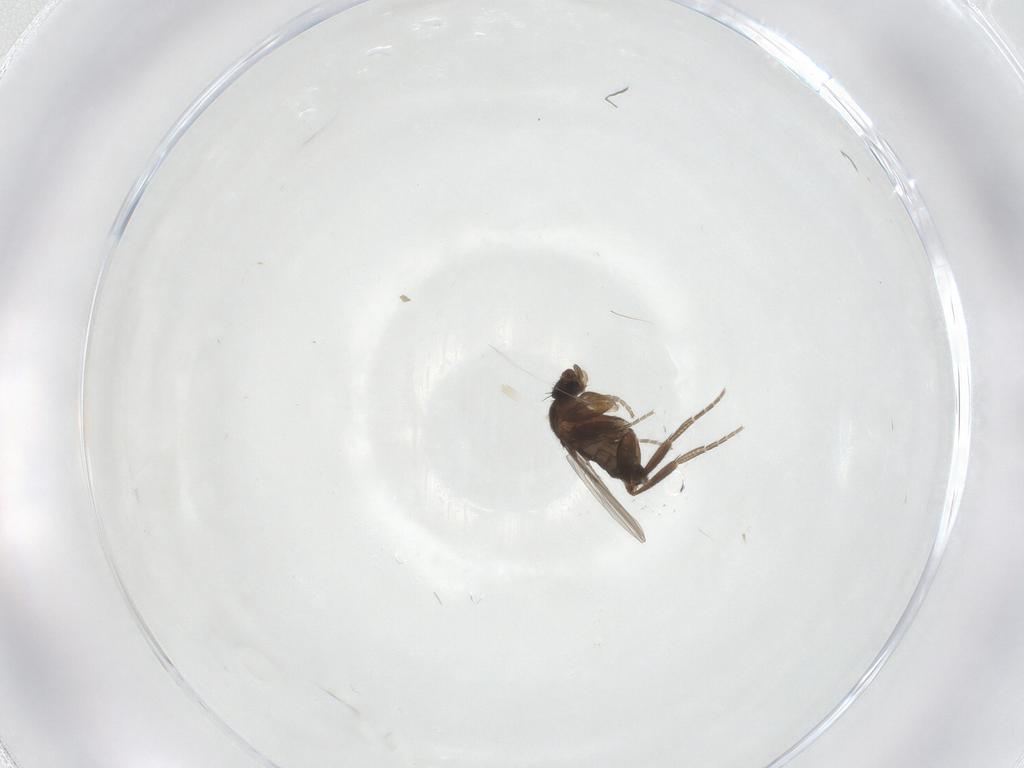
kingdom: Animalia
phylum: Arthropoda
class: Insecta
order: Diptera
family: Phoridae
